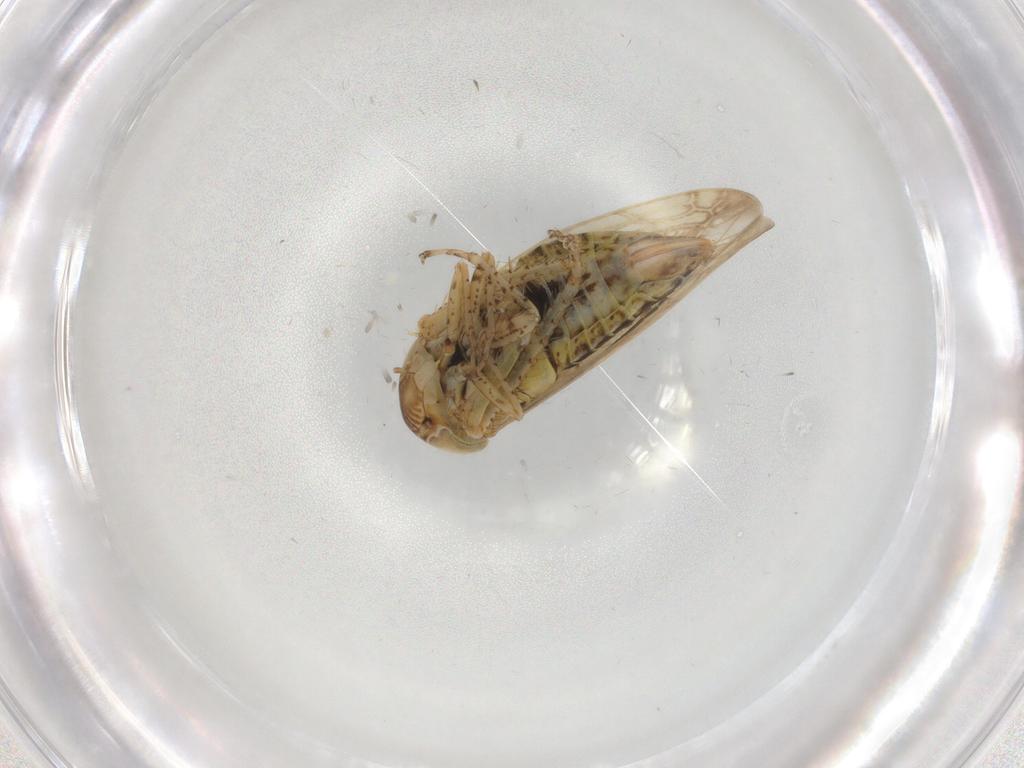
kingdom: Animalia
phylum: Arthropoda
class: Insecta
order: Hemiptera
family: Cicadellidae
